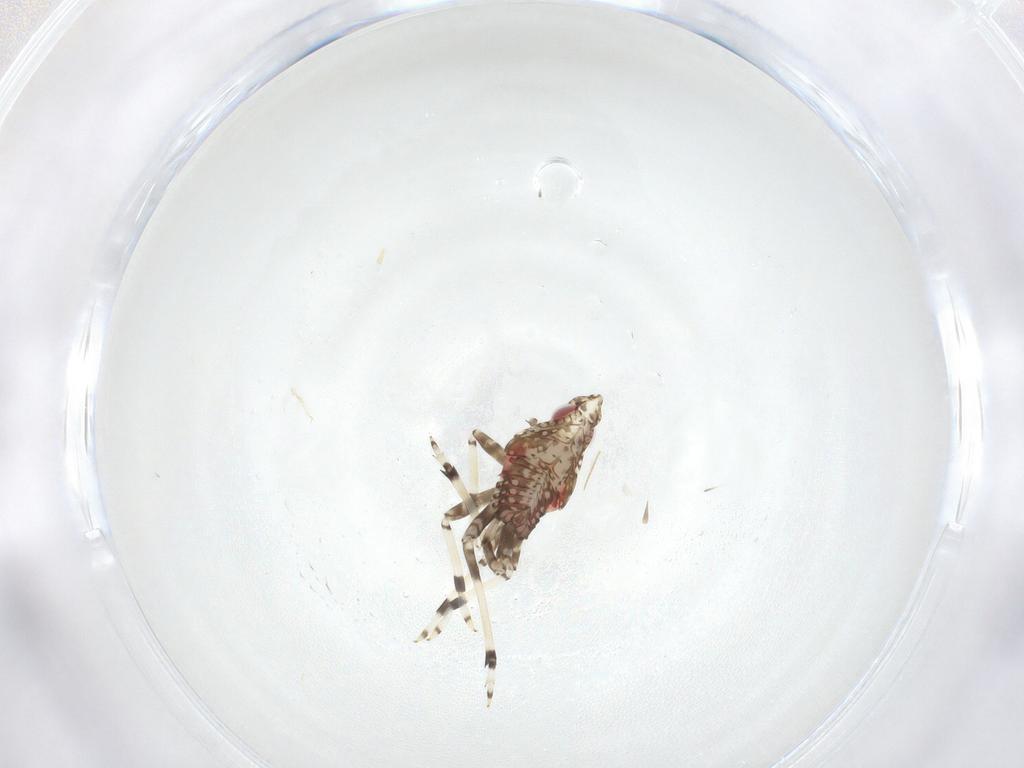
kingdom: Animalia
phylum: Arthropoda
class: Insecta
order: Hemiptera
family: Dictyopharidae
